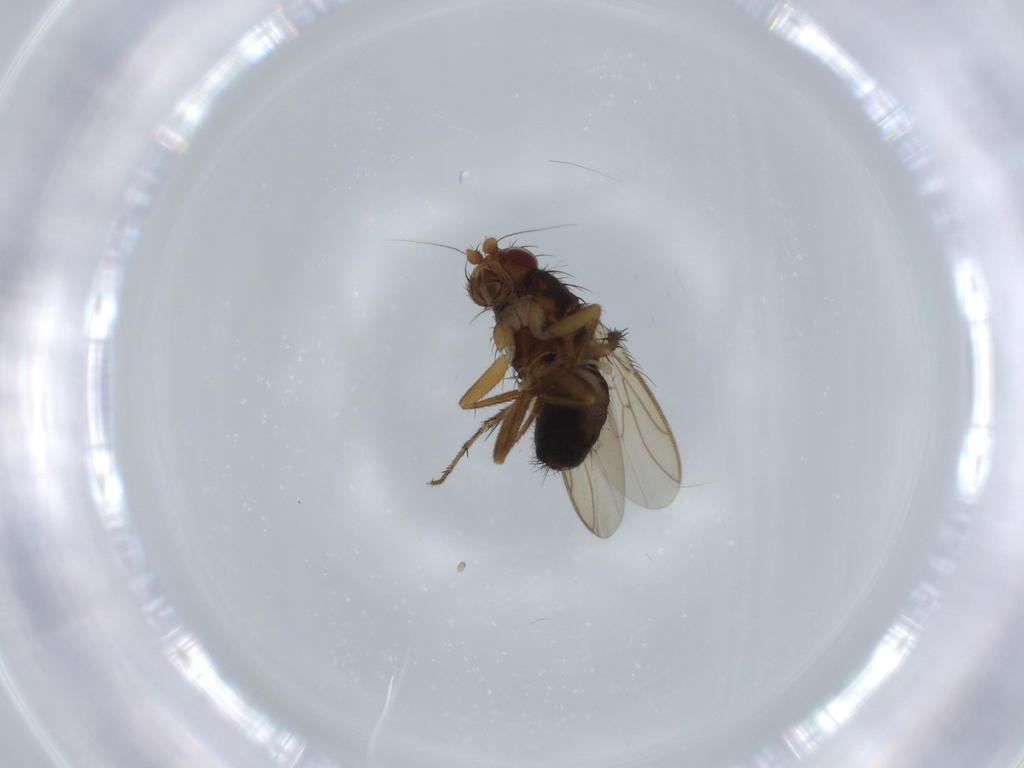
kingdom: Animalia
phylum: Arthropoda
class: Insecta
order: Diptera
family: Sphaeroceridae
